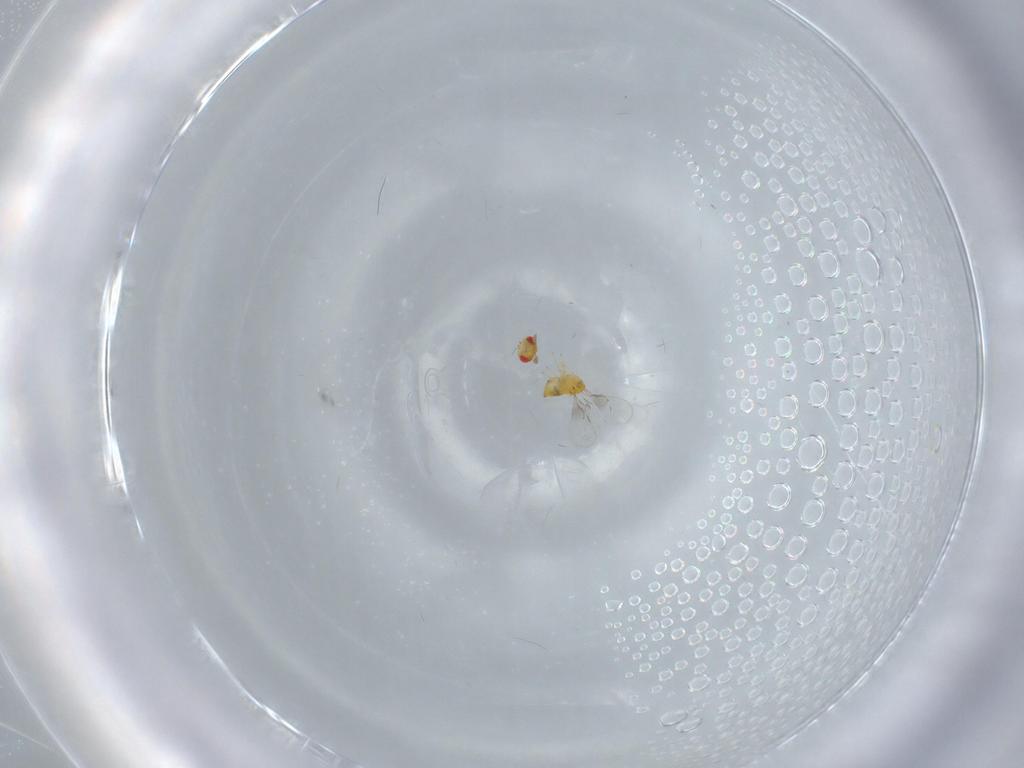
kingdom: Animalia
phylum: Arthropoda
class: Insecta
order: Hymenoptera
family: Trichogrammatidae
